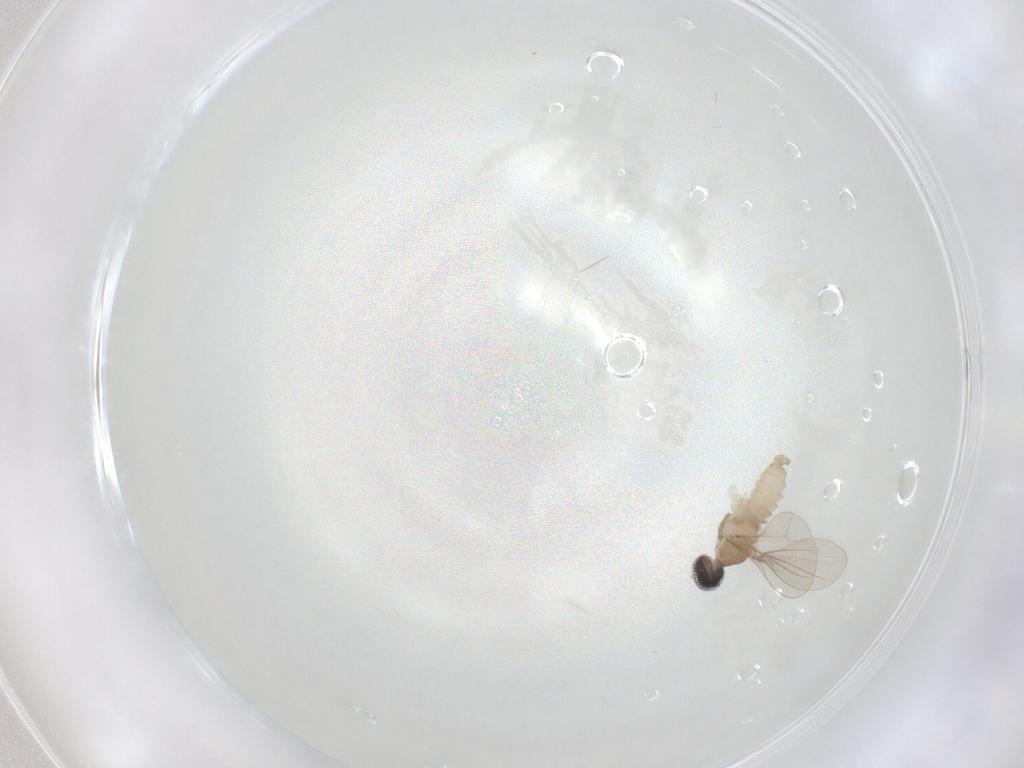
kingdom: Animalia
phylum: Arthropoda
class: Insecta
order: Diptera
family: Cecidomyiidae
